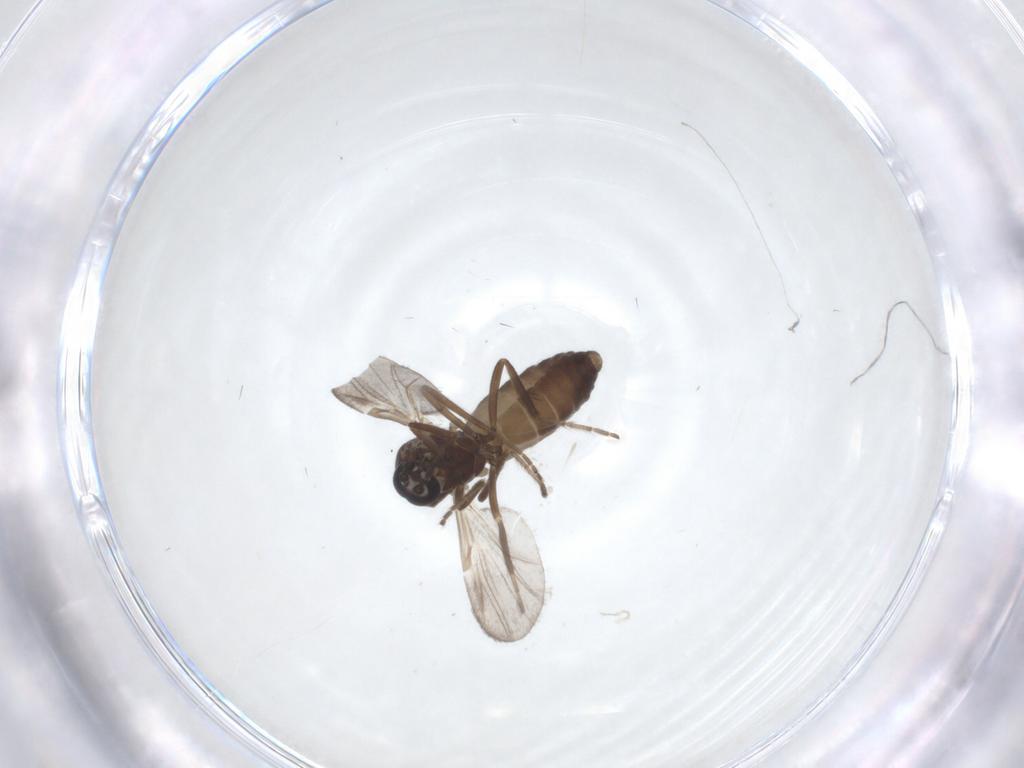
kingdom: Animalia
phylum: Arthropoda
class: Insecta
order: Diptera
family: Ceratopogonidae
